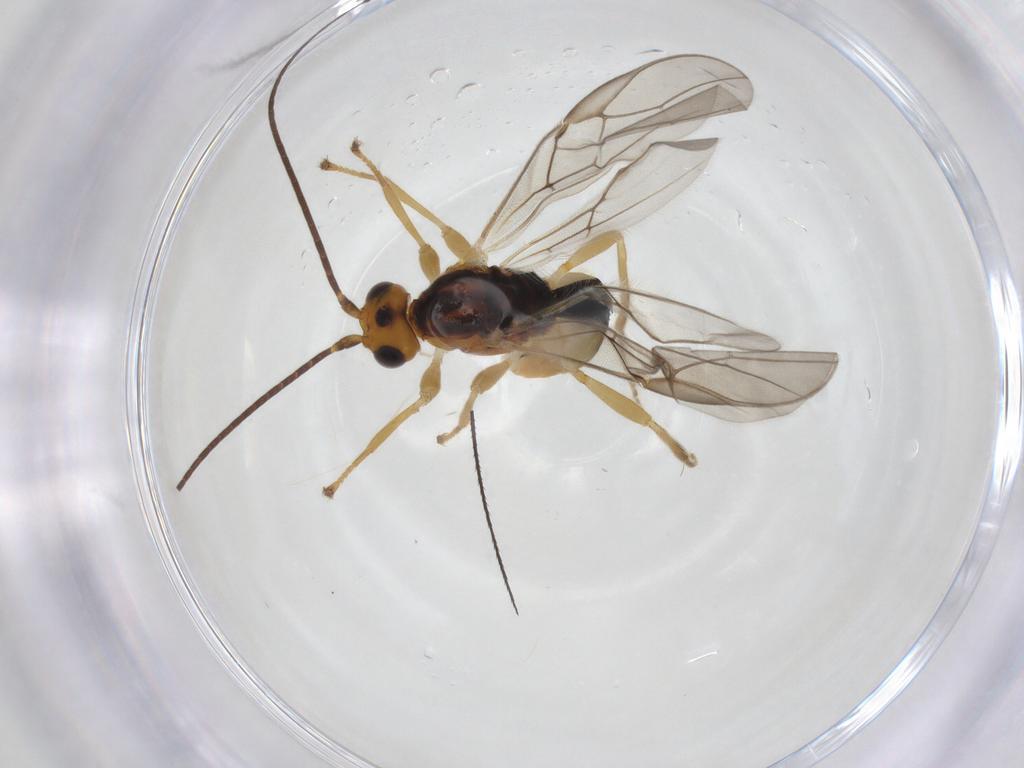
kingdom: Animalia
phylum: Arthropoda
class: Insecta
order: Hymenoptera
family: Braconidae
